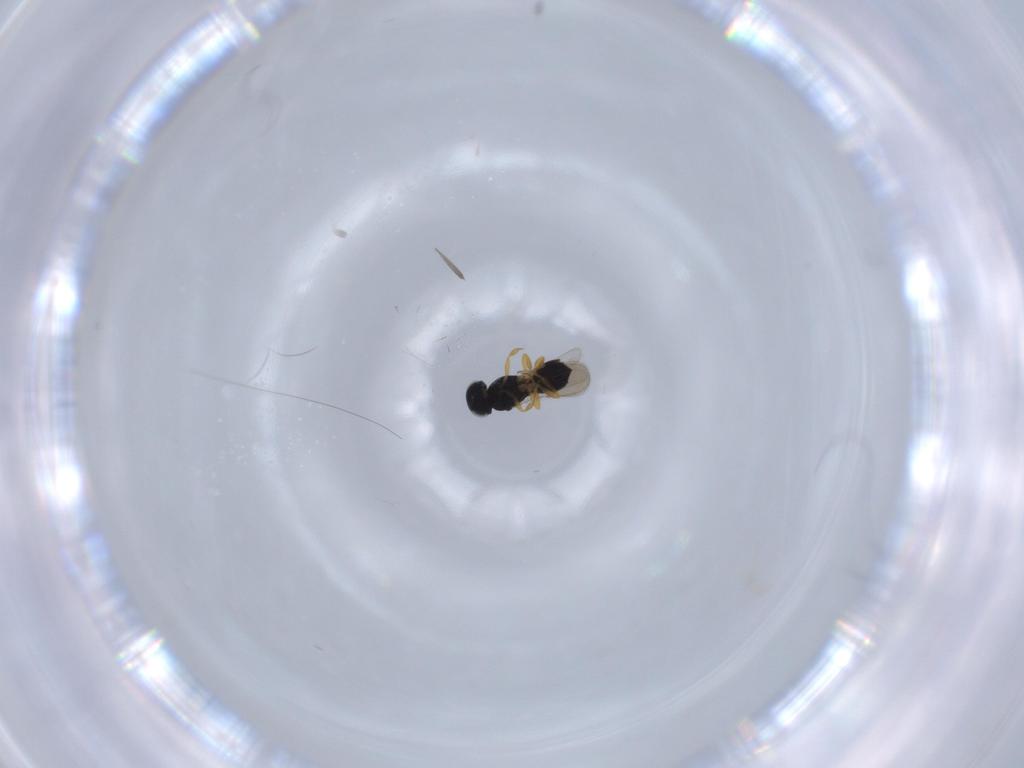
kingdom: Animalia
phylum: Arthropoda
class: Insecta
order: Hymenoptera
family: Scelionidae
